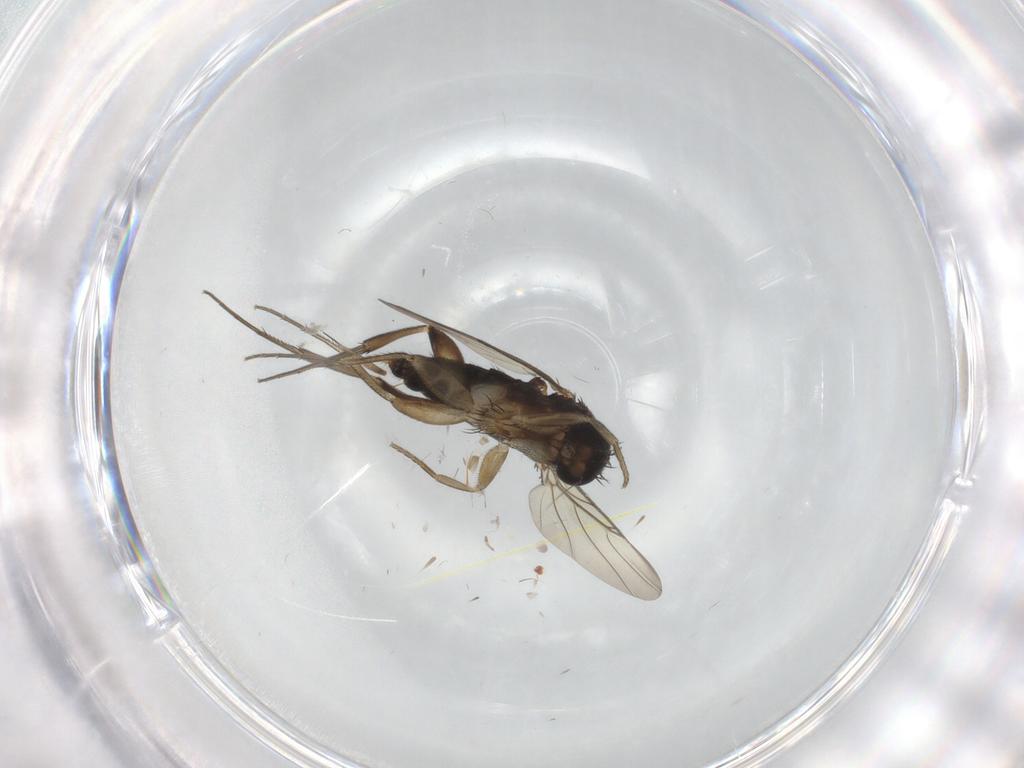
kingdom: Animalia
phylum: Arthropoda
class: Insecta
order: Diptera
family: Phoridae
